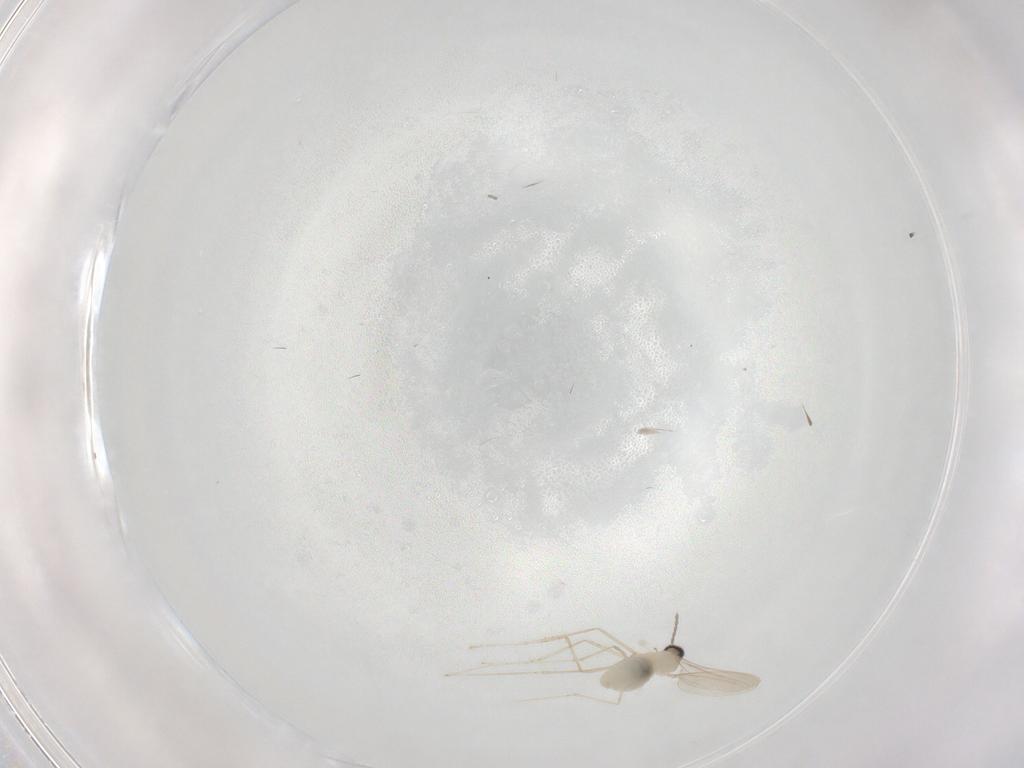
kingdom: Animalia
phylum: Arthropoda
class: Insecta
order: Diptera
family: Cecidomyiidae
